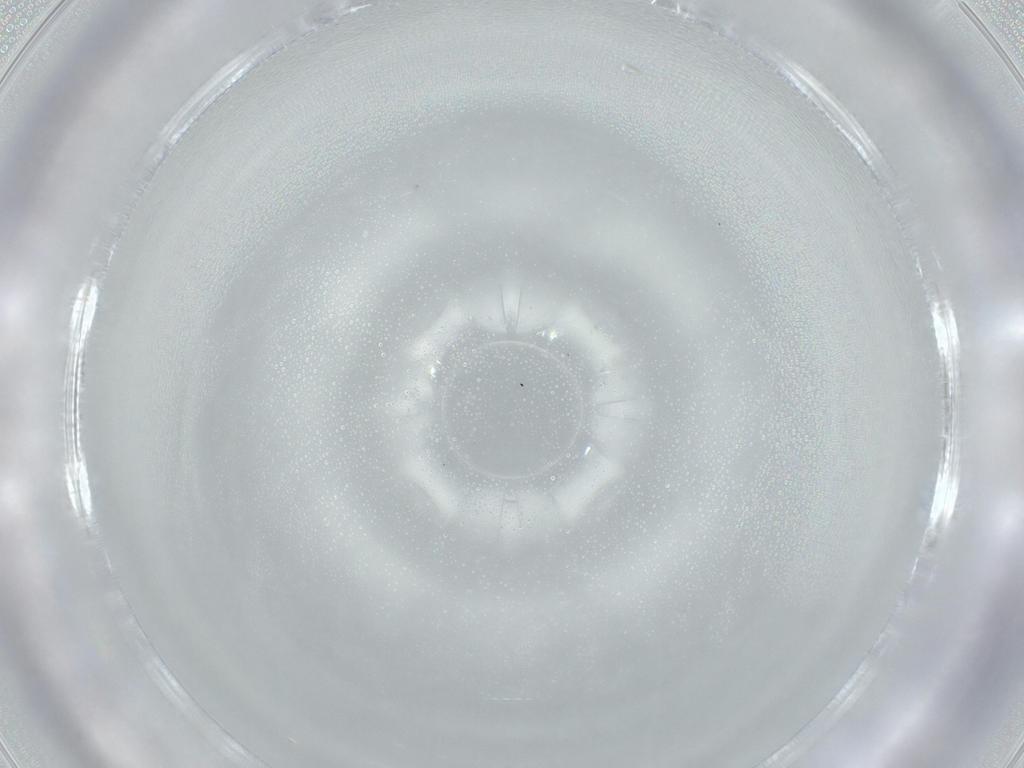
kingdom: Animalia
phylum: Arthropoda
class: Insecta
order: Coleoptera
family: Curculionidae
